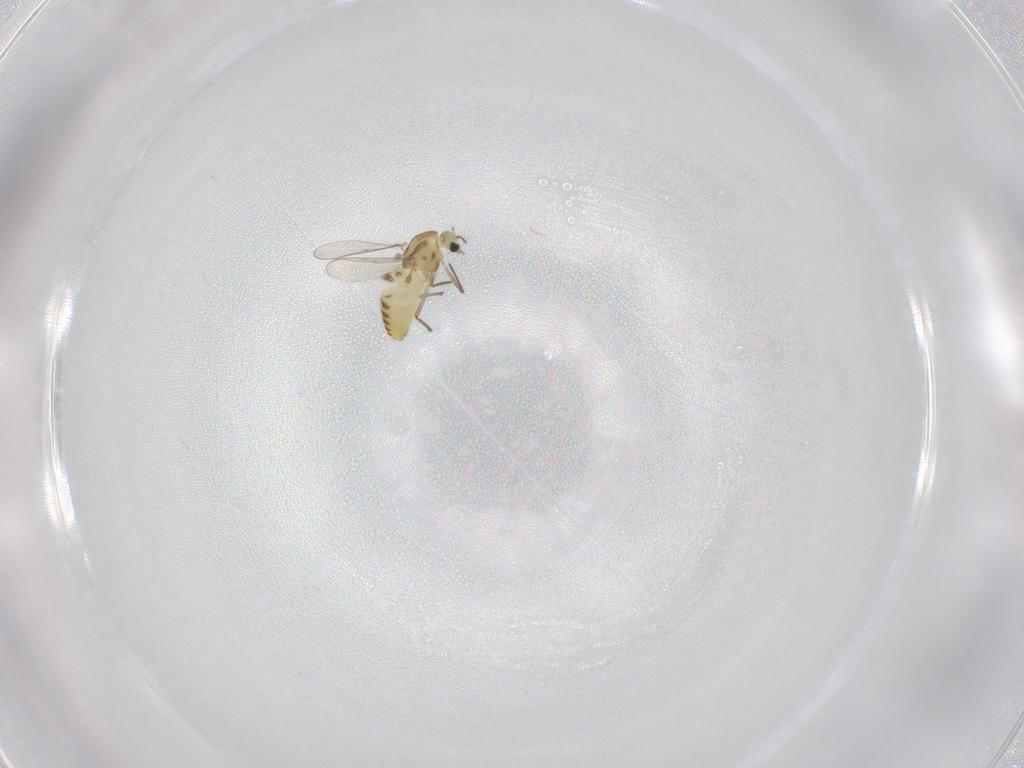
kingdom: Animalia
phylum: Arthropoda
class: Insecta
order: Diptera
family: Chironomidae
